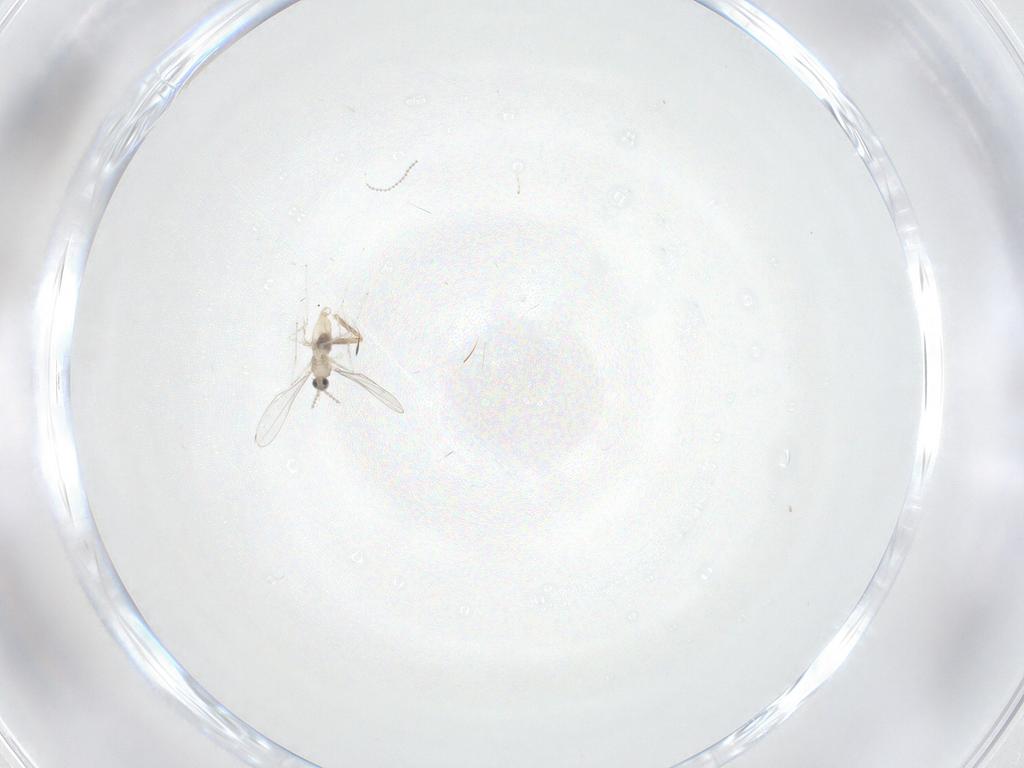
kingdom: Animalia
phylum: Arthropoda
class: Insecta
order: Diptera
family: Cecidomyiidae
